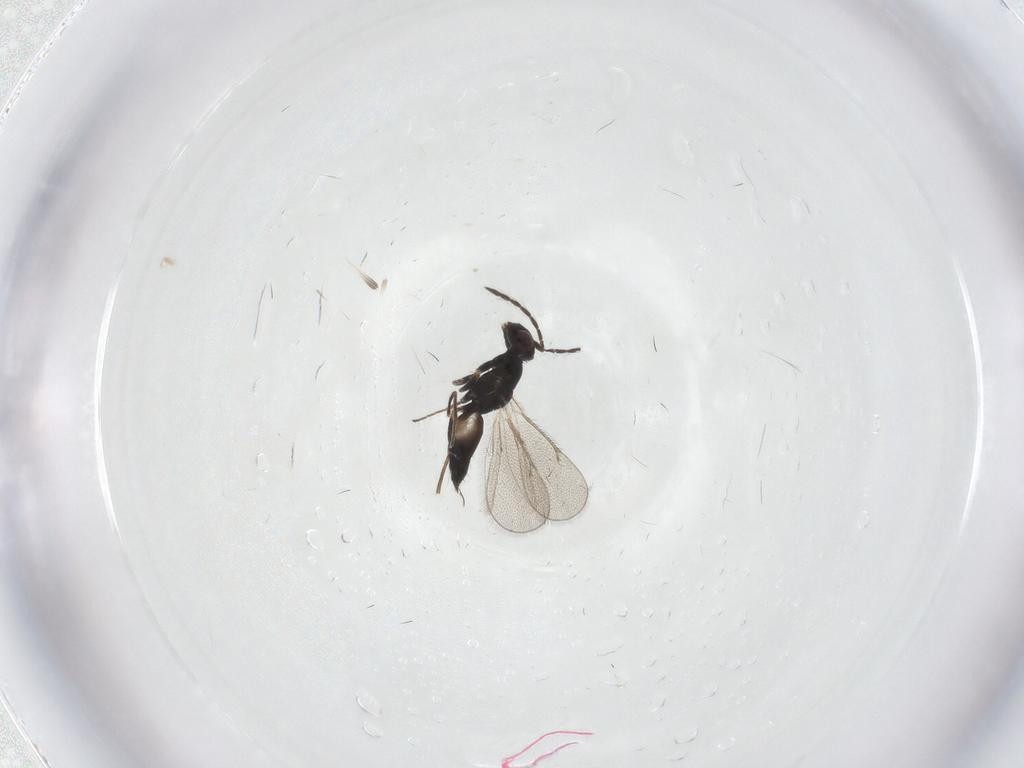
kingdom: Animalia
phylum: Arthropoda
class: Insecta
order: Hymenoptera
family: Eulophidae
